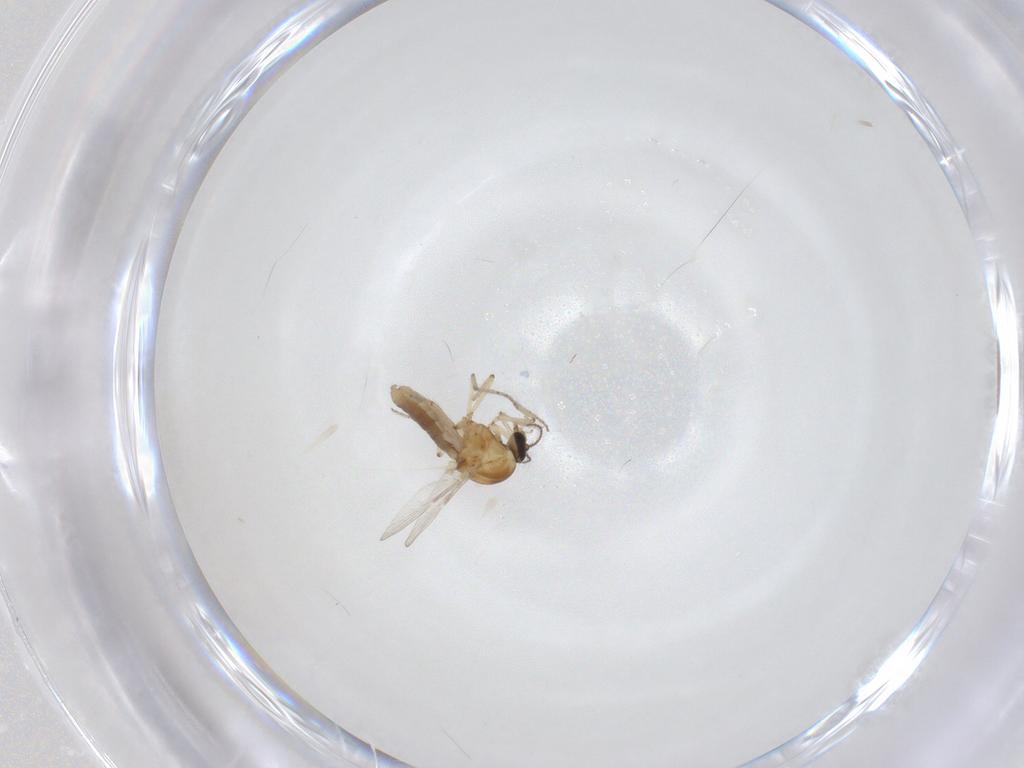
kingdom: Animalia
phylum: Arthropoda
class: Insecta
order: Diptera
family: Ceratopogonidae
